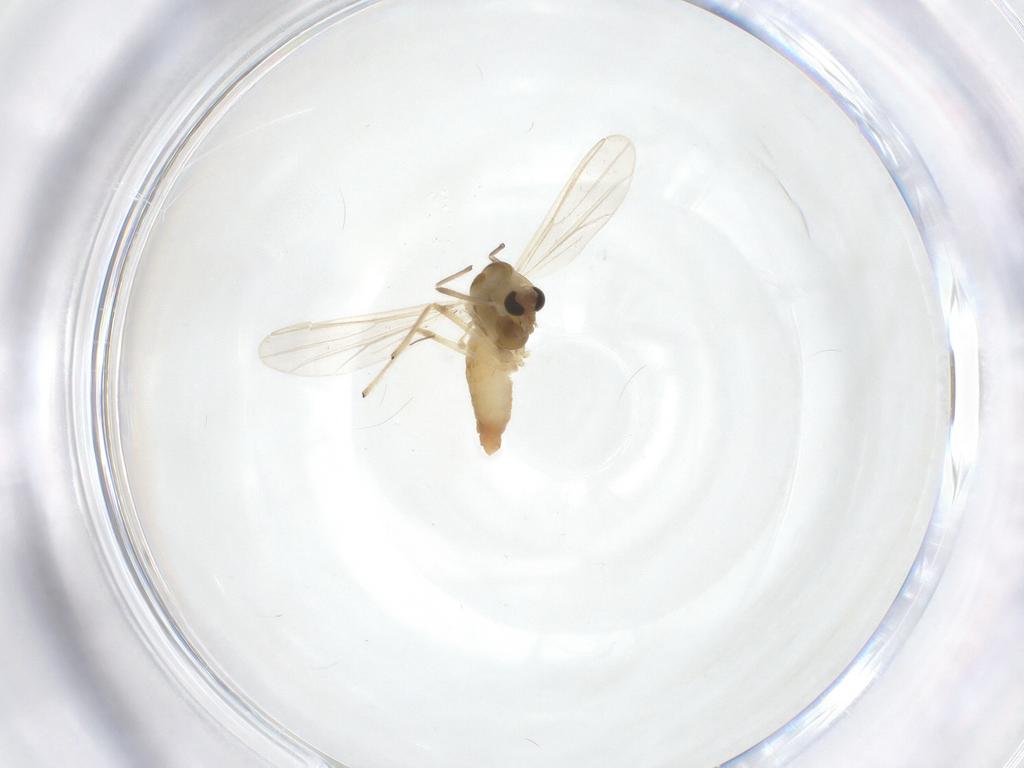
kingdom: Animalia
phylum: Arthropoda
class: Insecta
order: Diptera
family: Chironomidae
